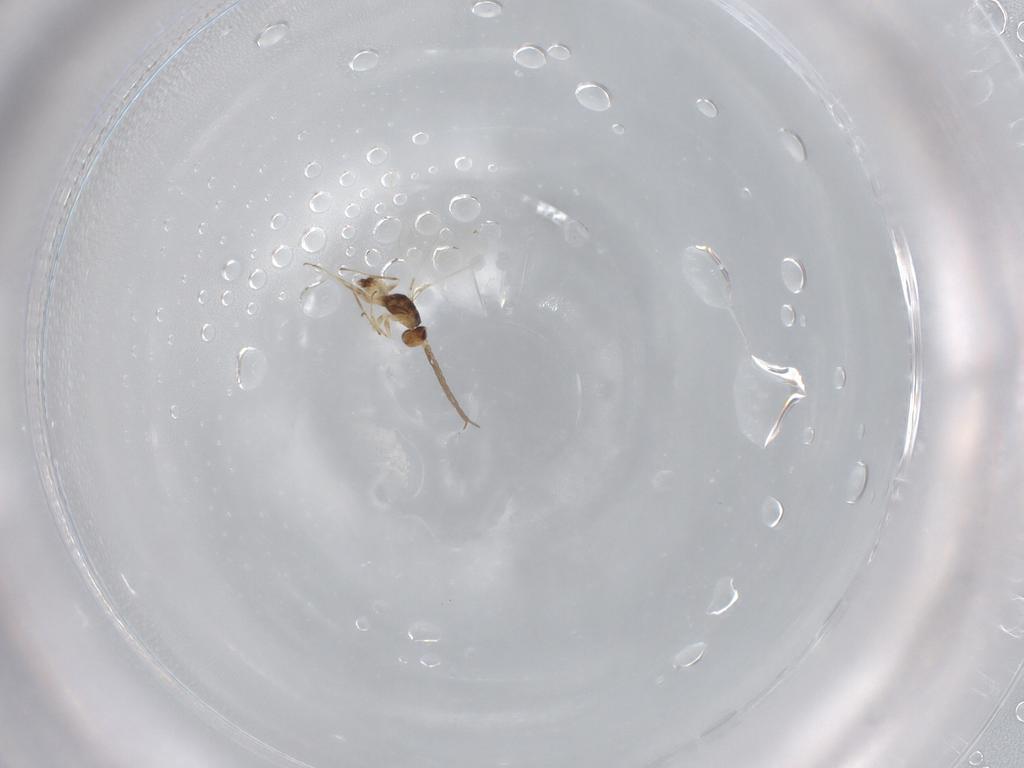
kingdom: Animalia
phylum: Arthropoda
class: Insecta
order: Hymenoptera
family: Mymaridae
